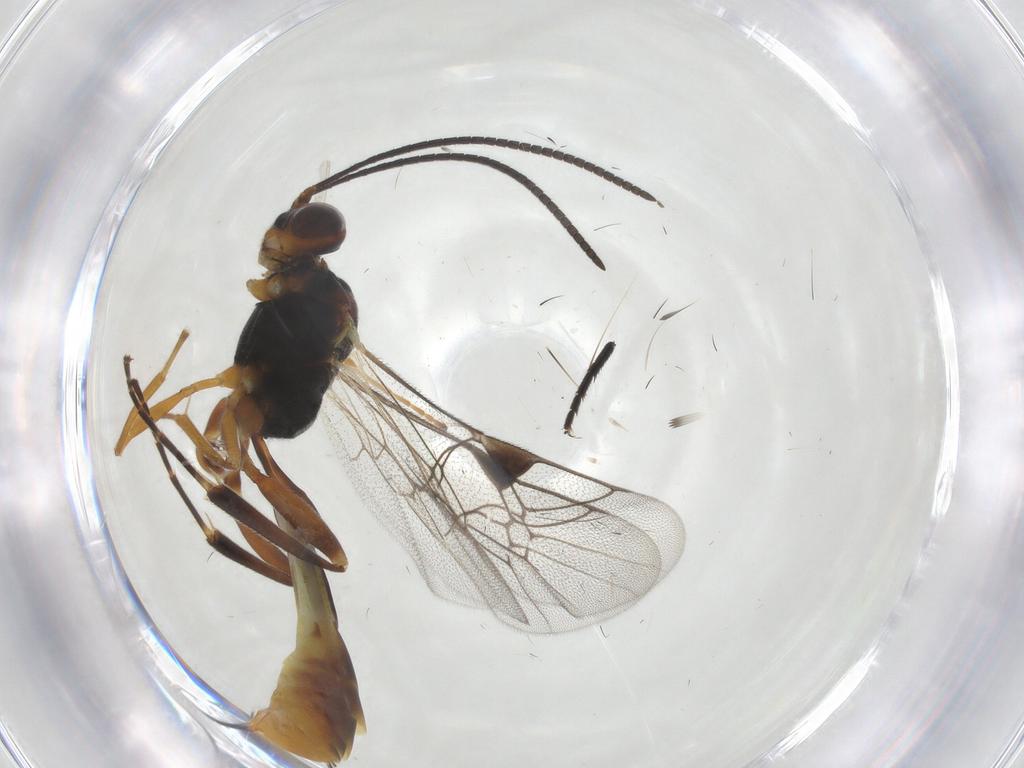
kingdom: Animalia
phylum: Arthropoda
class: Insecta
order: Hymenoptera
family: Ichneumonidae
